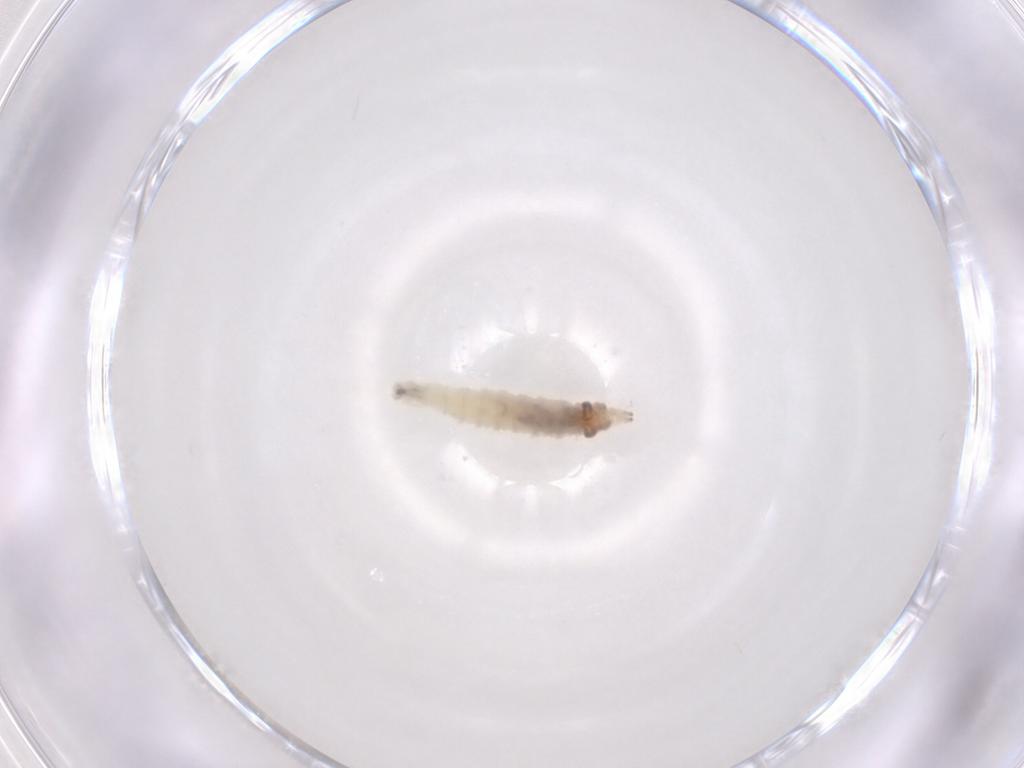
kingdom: Animalia
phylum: Arthropoda
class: Insecta
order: Diptera
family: Drosophilidae
